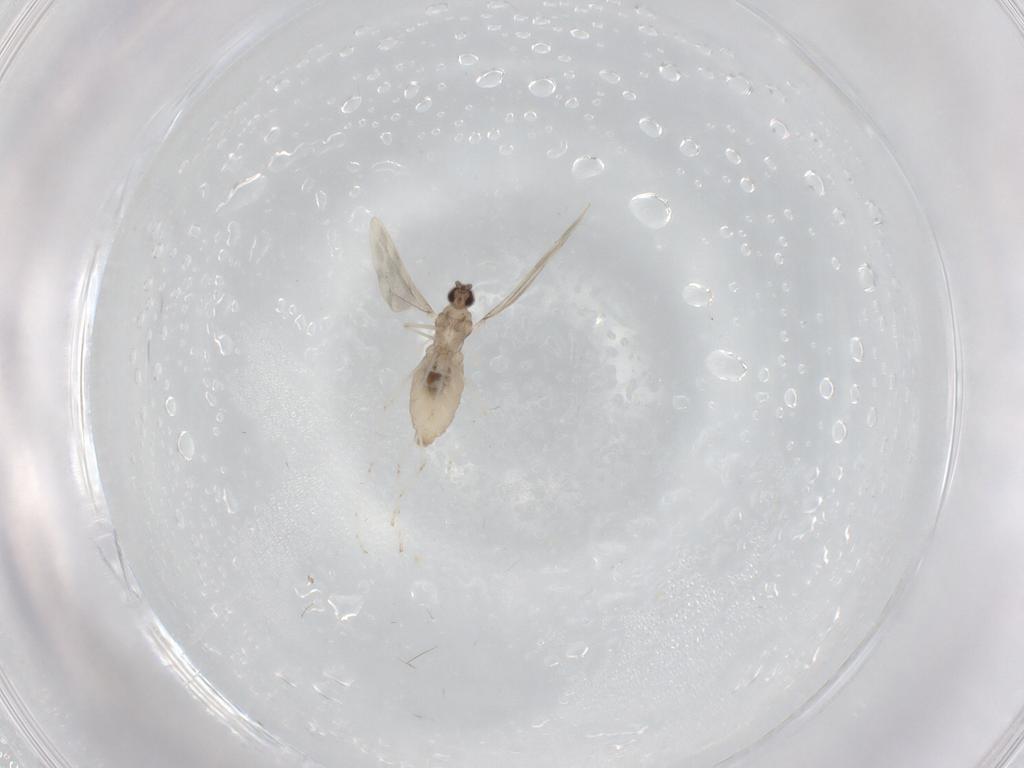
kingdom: Animalia
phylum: Arthropoda
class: Insecta
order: Diptera
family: Cecidomyiidae
